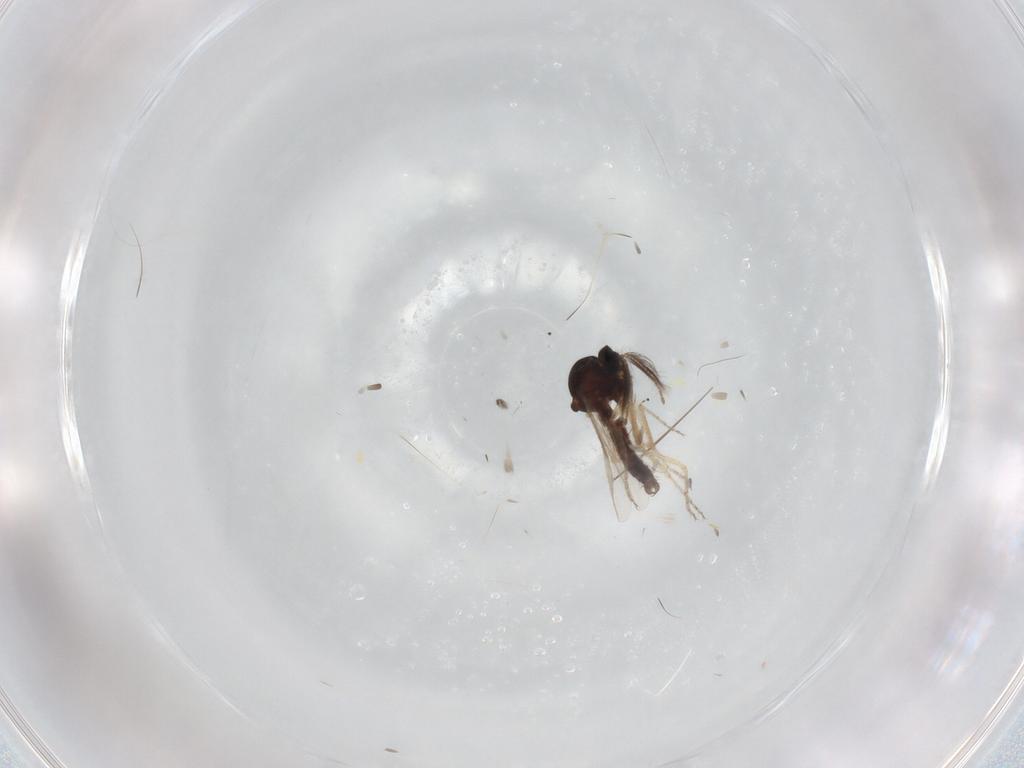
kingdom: Animalia
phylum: Arthropoda
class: Insecta
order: Diptera
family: Ceratopogonidae
